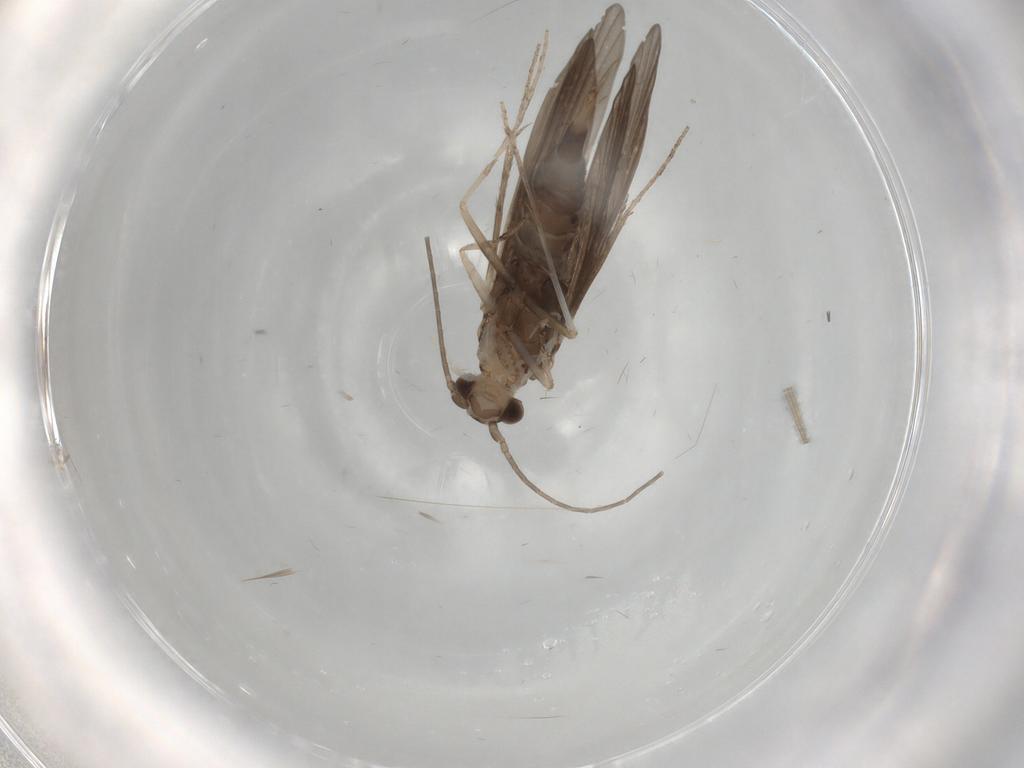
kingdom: Animalia
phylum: Arthropoda
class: Insecta
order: Trichoptera
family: Xiphocentronidae
